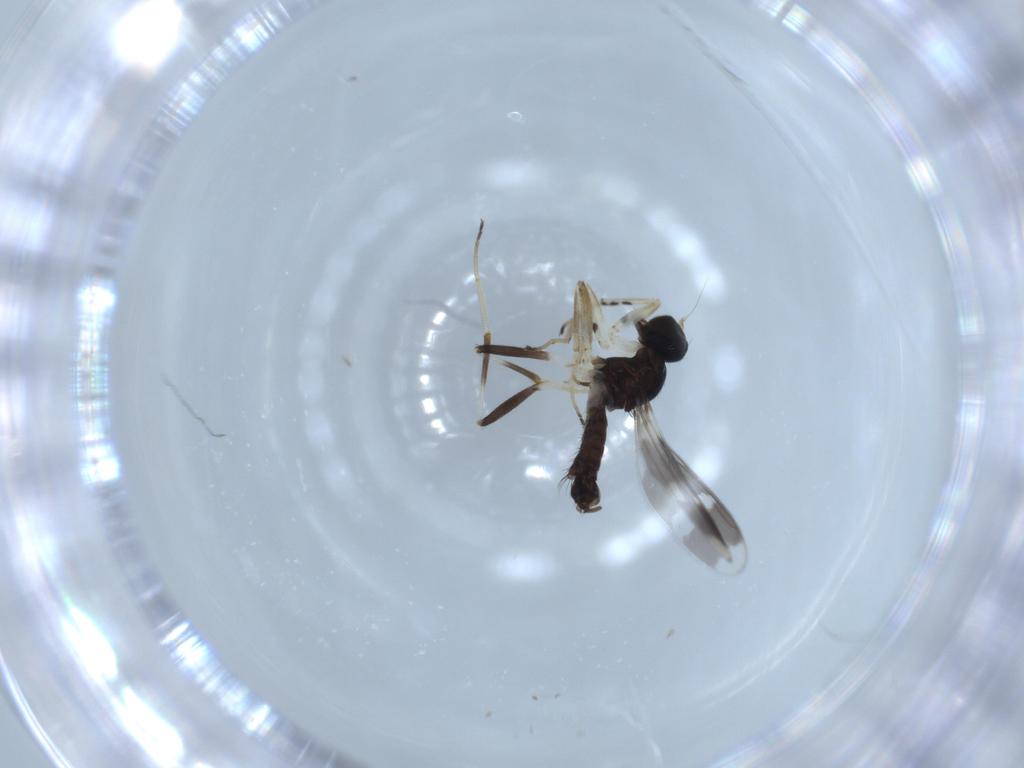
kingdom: Animalia
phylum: Arthropoda
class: Insecta
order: Diptera
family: Hybotidae
